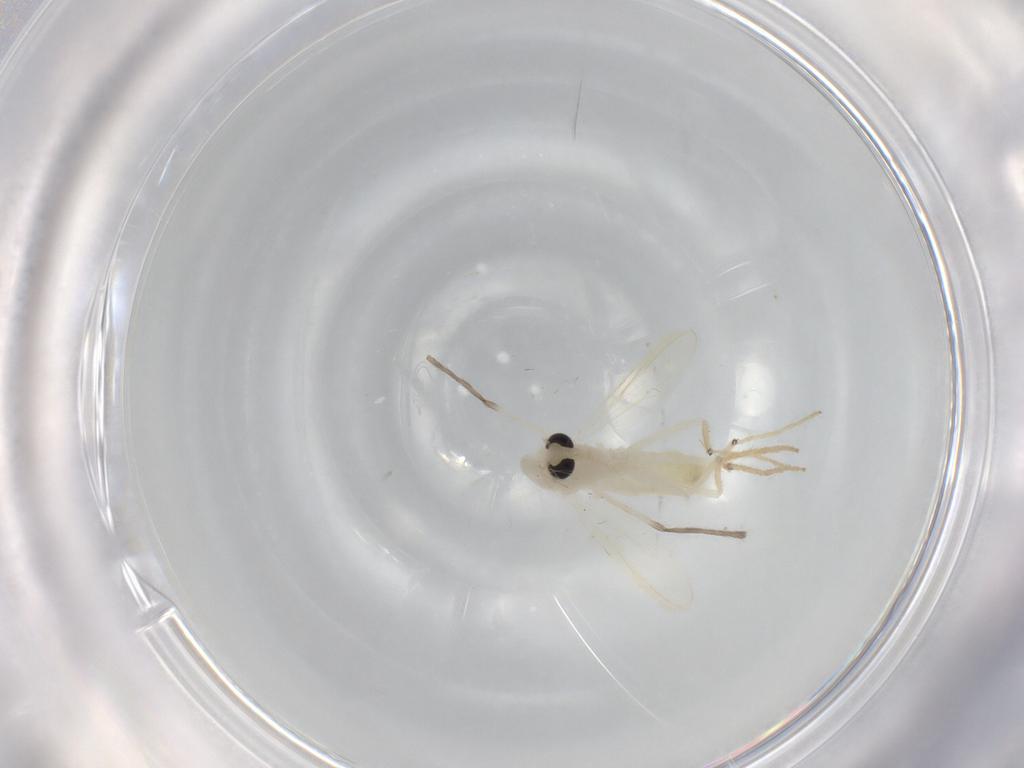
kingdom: Animalia
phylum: Arthropoda
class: Insecta
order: Diptera
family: Chironomidae
